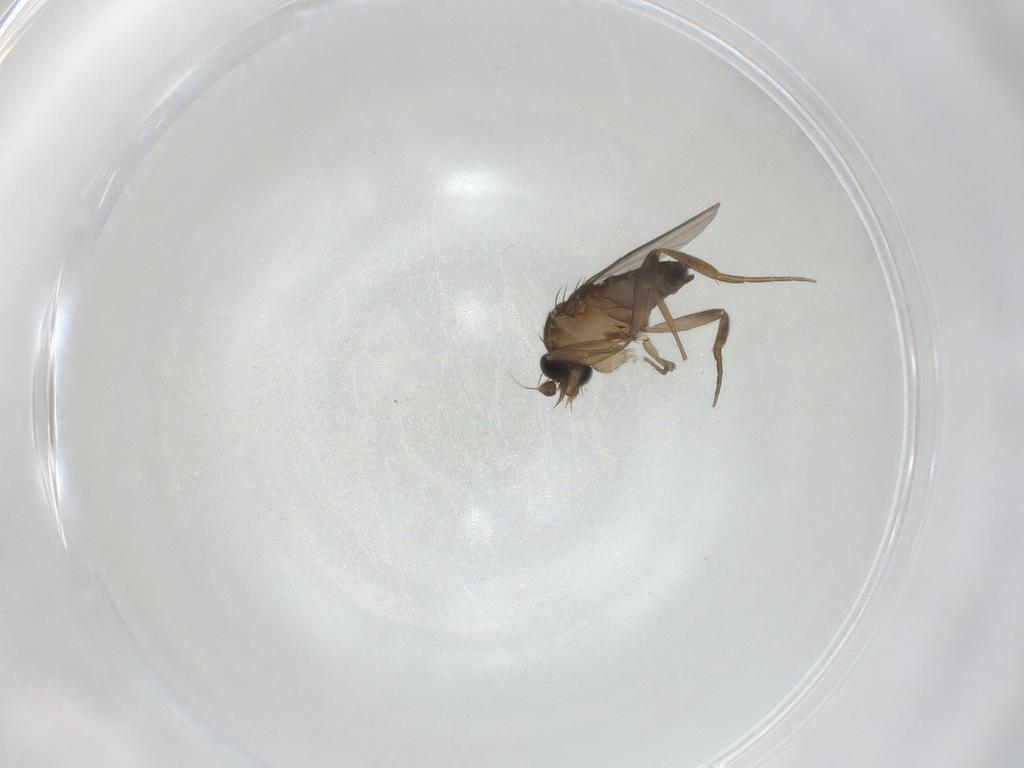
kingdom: Animalia
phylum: Arthropoda
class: Insecta
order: Diptera
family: Phoridae
